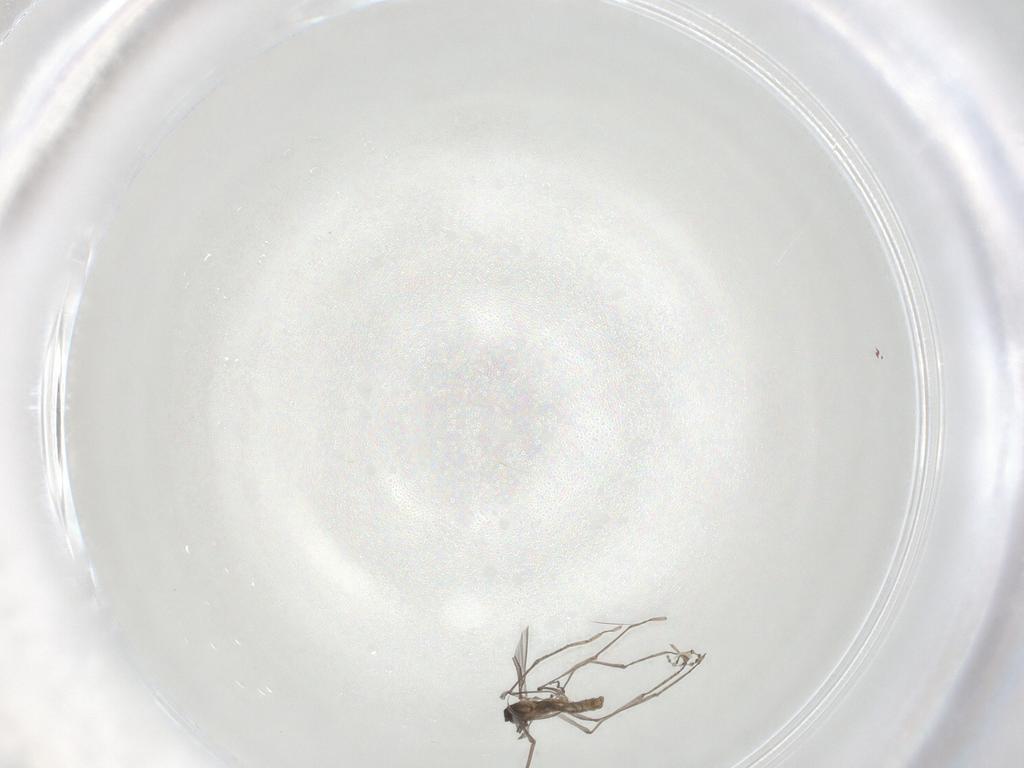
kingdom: Animalia
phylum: Arthropoda
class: Insecta
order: Diptera
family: Cecidomyiidae
